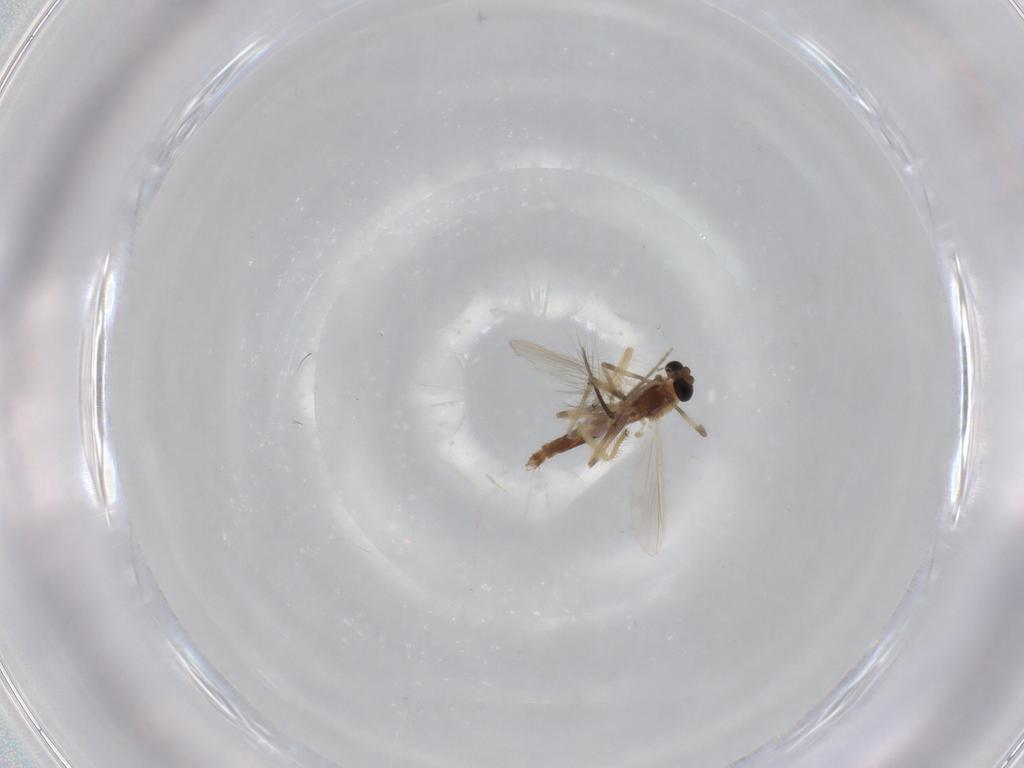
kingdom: Animalia
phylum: Arthropoda
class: Insecta
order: Diptera
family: Chironomidae
